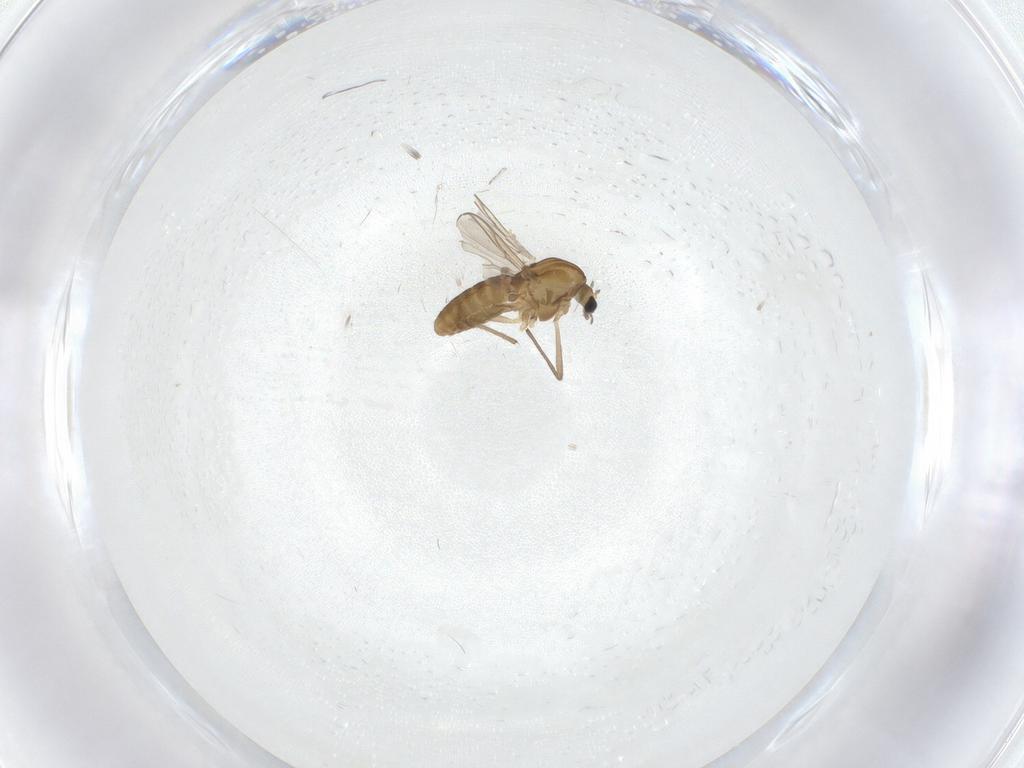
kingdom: Animalia
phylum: Arthropoda
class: Insecta
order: Diptera
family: Chironomidae
